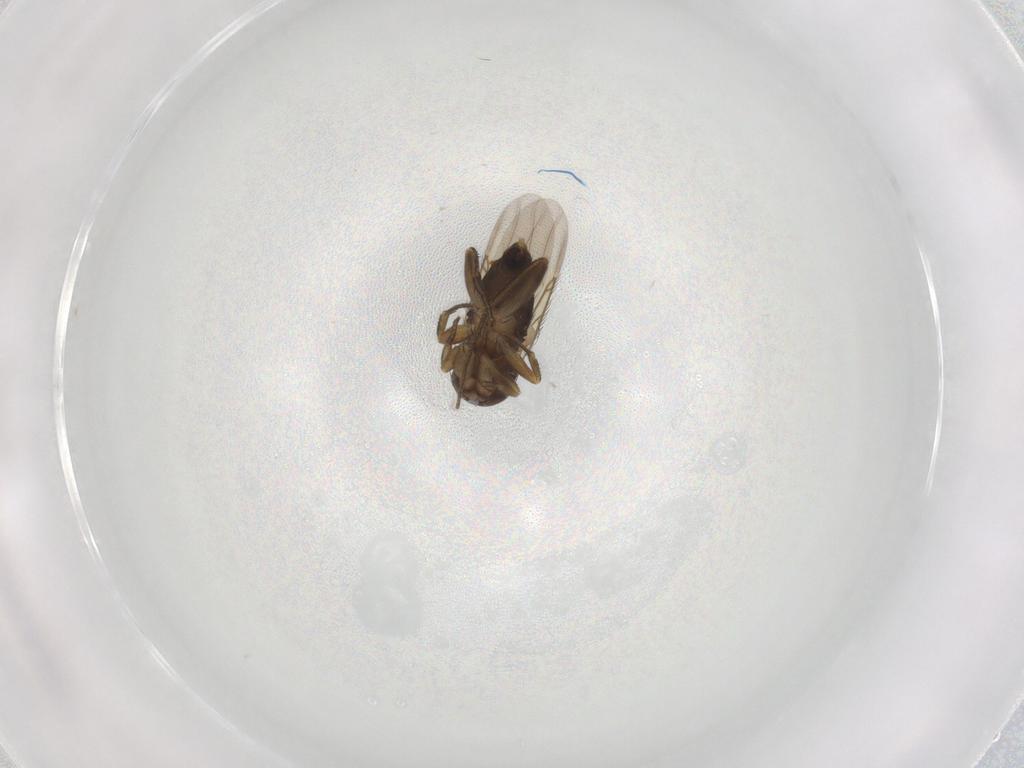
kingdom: Animalia
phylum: Arthropoda
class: Insecta
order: Diptera
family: Phoridae
